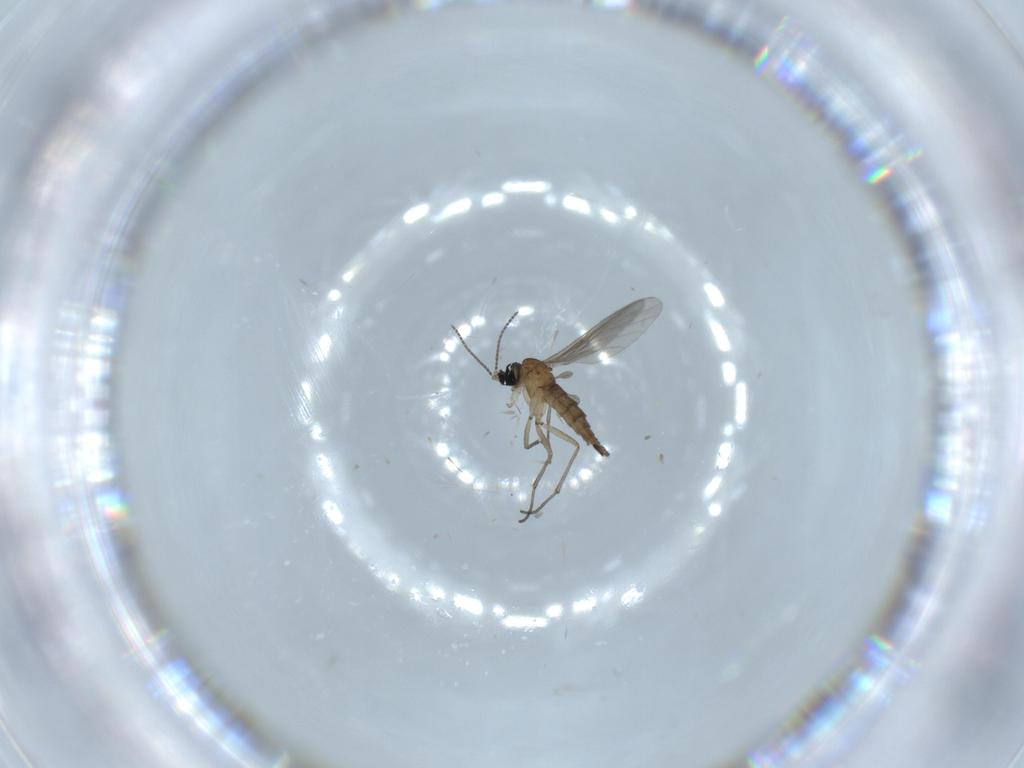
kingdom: Animalia
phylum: Arthropoda
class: Insecta
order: Diptera
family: Sciaridae
